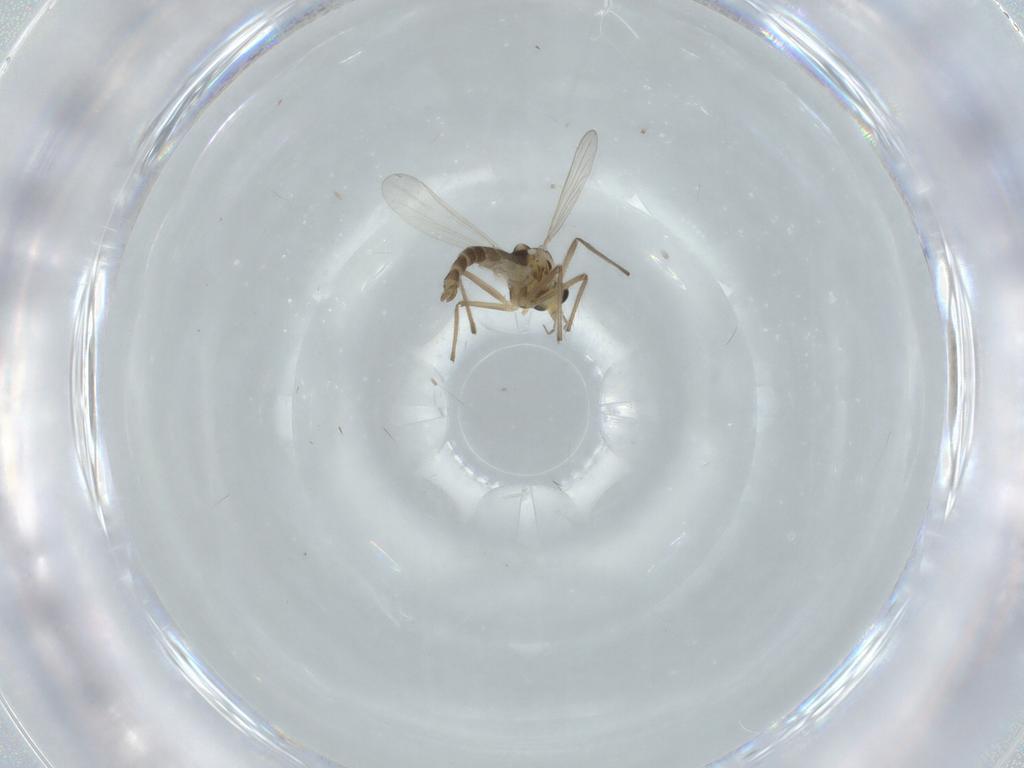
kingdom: Animalia
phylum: Arthropoda
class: Insecta
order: Diptera
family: Chironomidae
